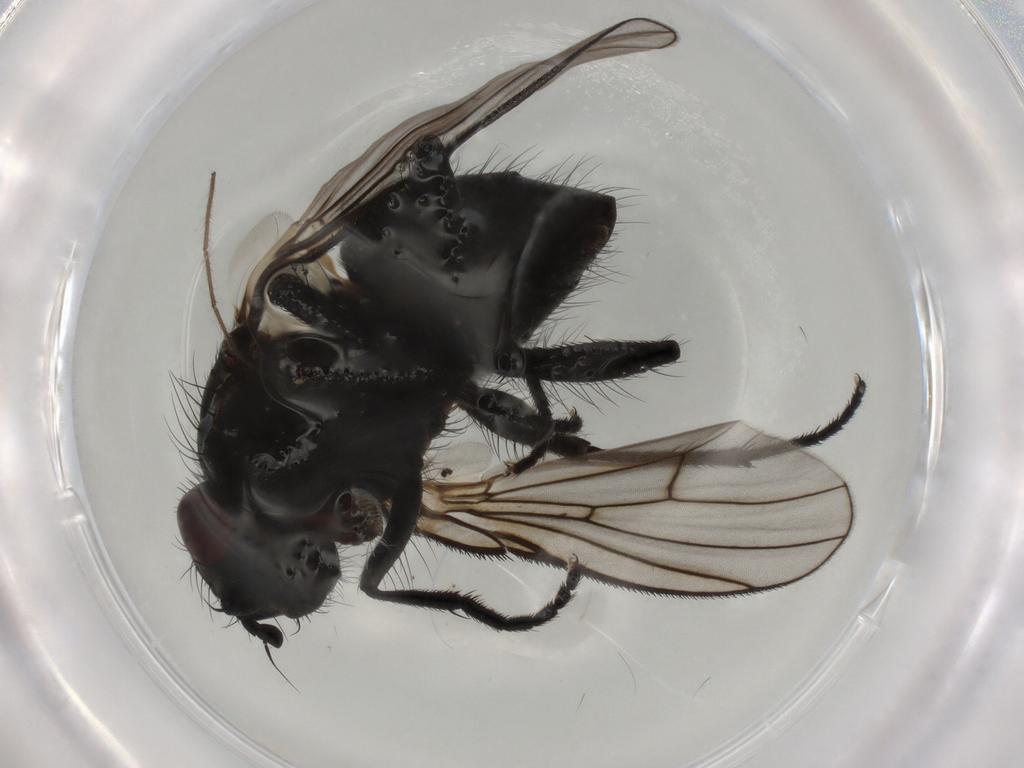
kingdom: Animalia
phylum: Arthropoda
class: Insecta
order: Diptera
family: Muscidae
